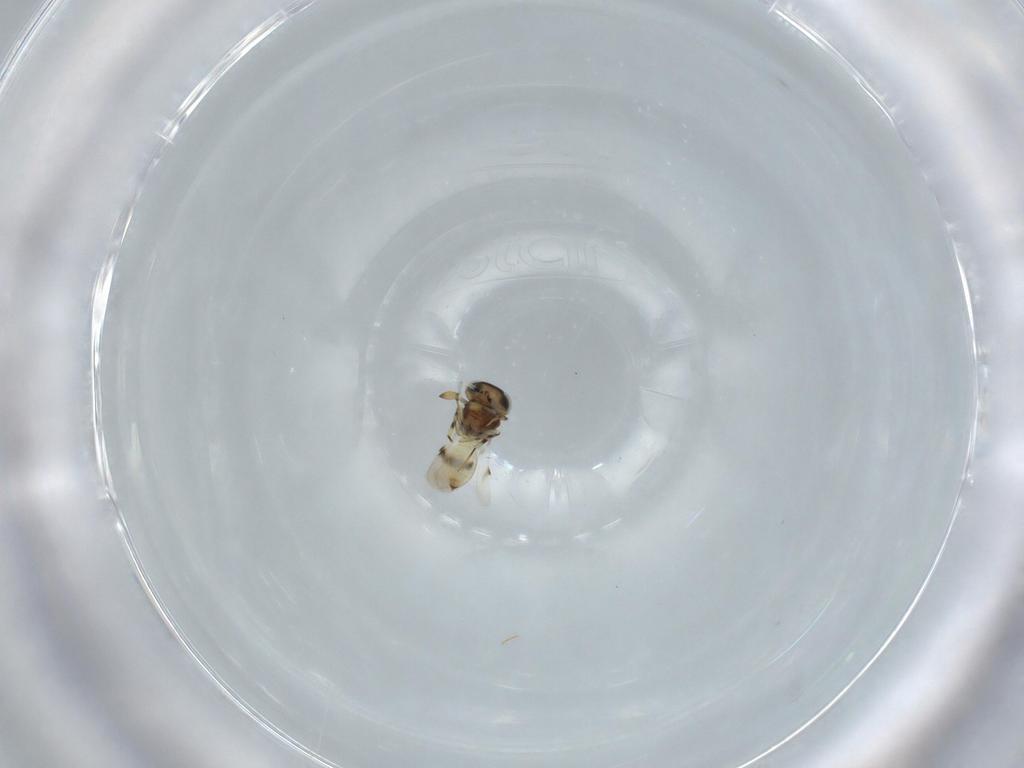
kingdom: Animalia
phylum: Arthropoda
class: Insecta
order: Hymenoptera
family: Scelionidae
